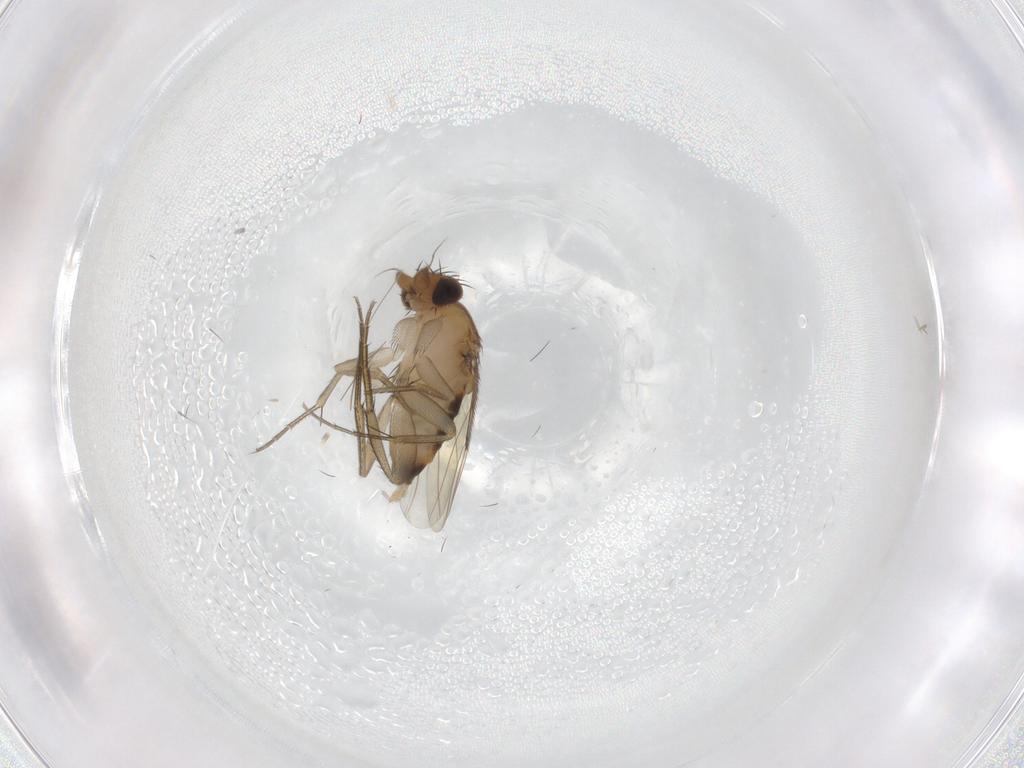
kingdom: Animalia
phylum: Arthropoda
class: Insecta
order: Diptera
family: Phoridae
